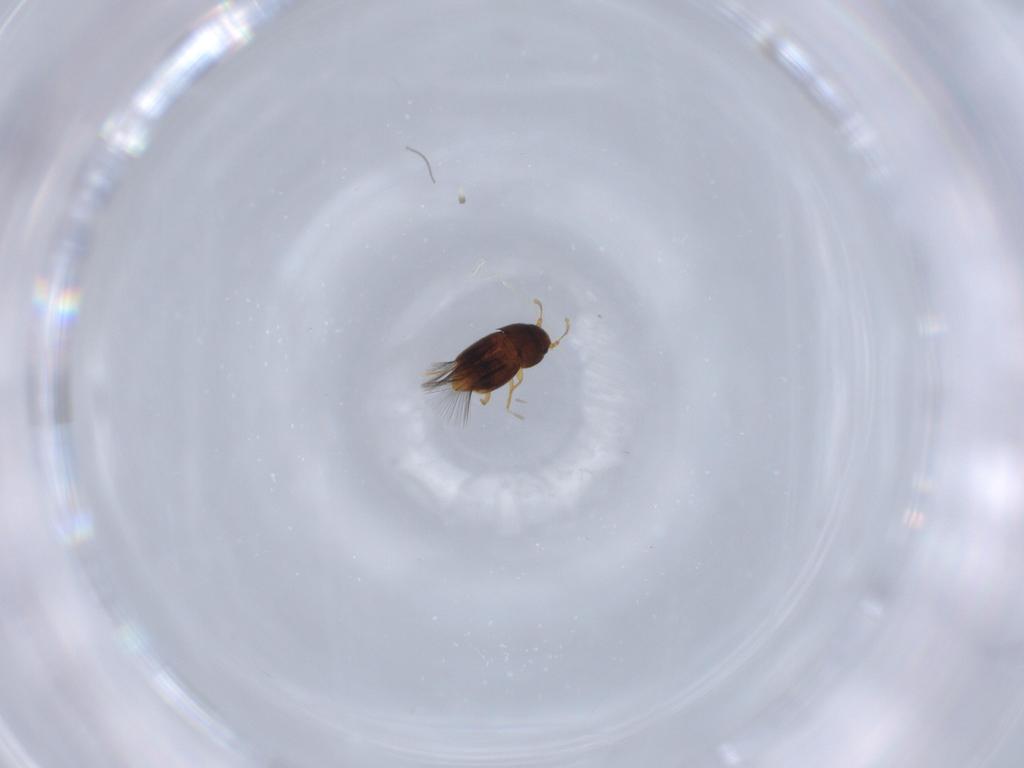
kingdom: Animalia
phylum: Arthropoda
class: Insecta
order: Coleoptera
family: Ptiliidae
